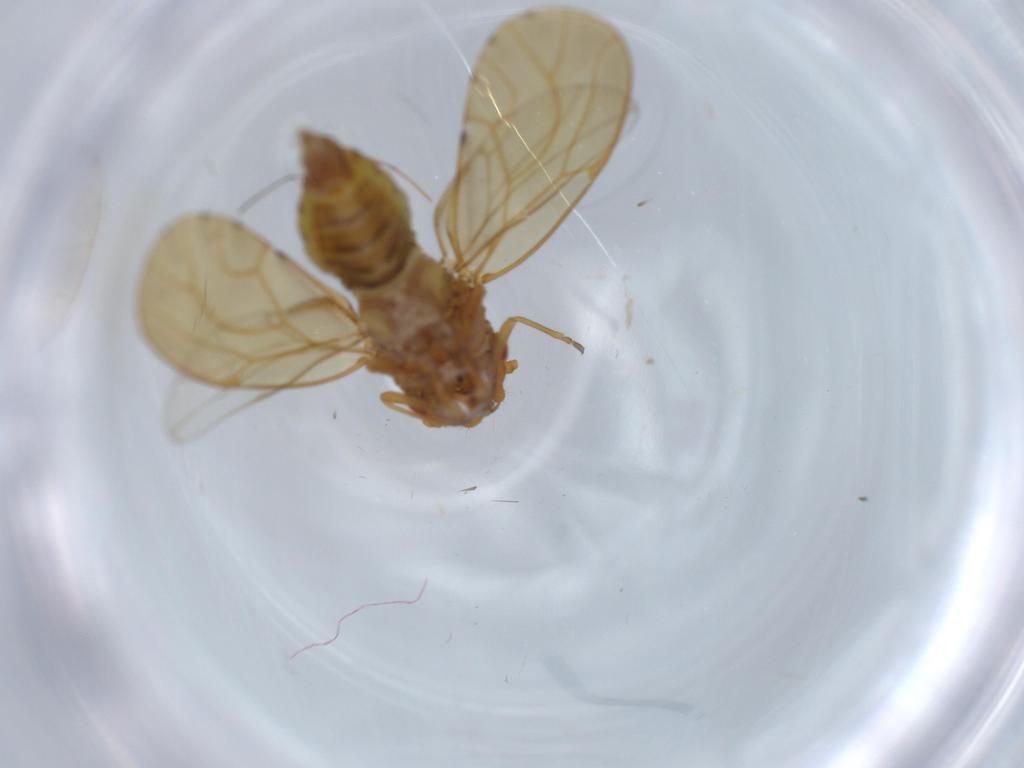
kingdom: Animalia
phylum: Arthropoda
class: Insecta
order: Hemiptera
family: Psylloidea_incertae_sedis
